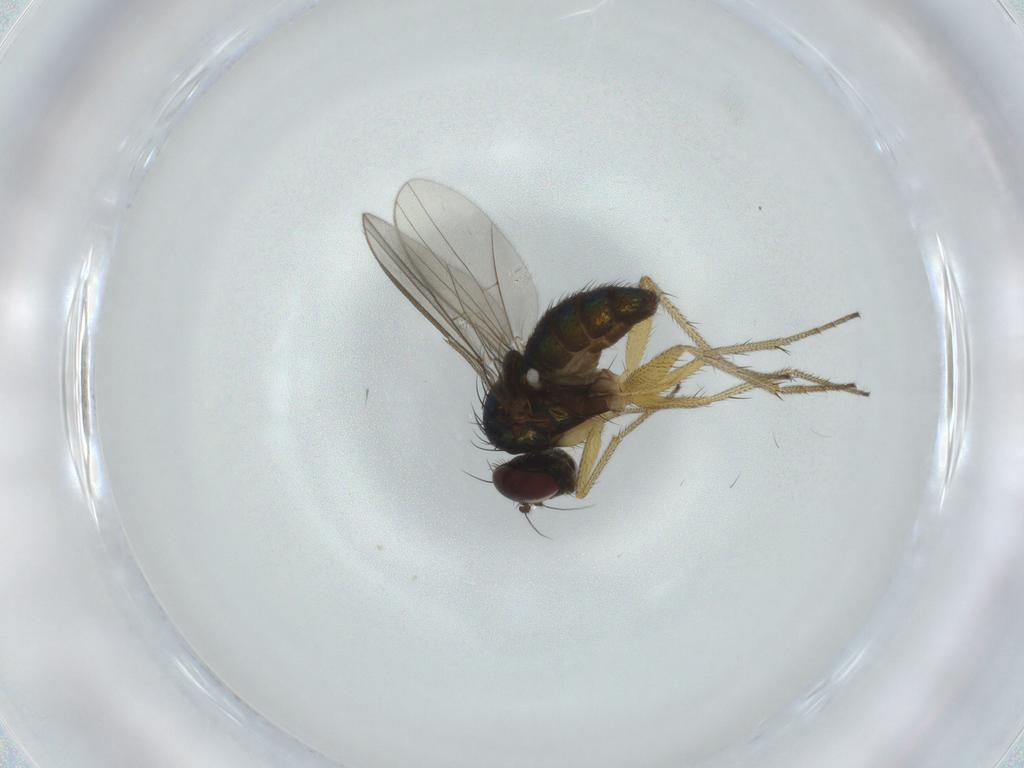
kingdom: Animalia
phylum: Arthropoda
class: Insecta
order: Diptera
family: Dolichopodidae
